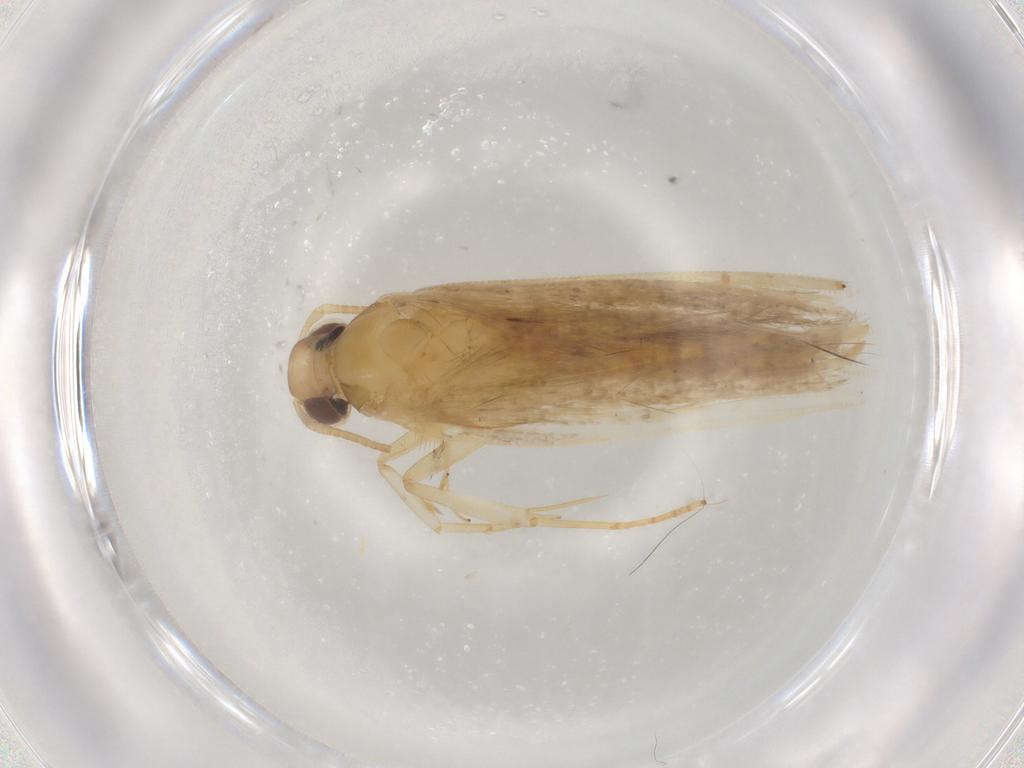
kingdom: Animalia
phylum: Arthropoda
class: Insecta
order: Lepidoptera
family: Gelechiidae
